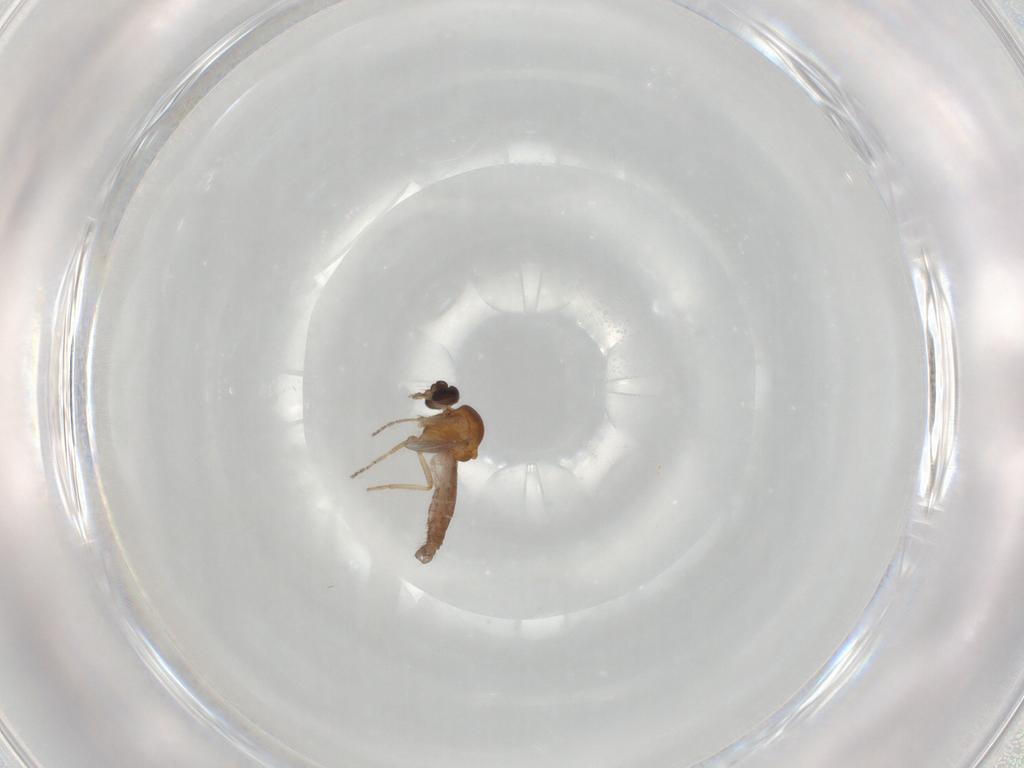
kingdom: Animalia
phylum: Arthropoda
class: Insecta
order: Diptera
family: Ceratopogonidae
